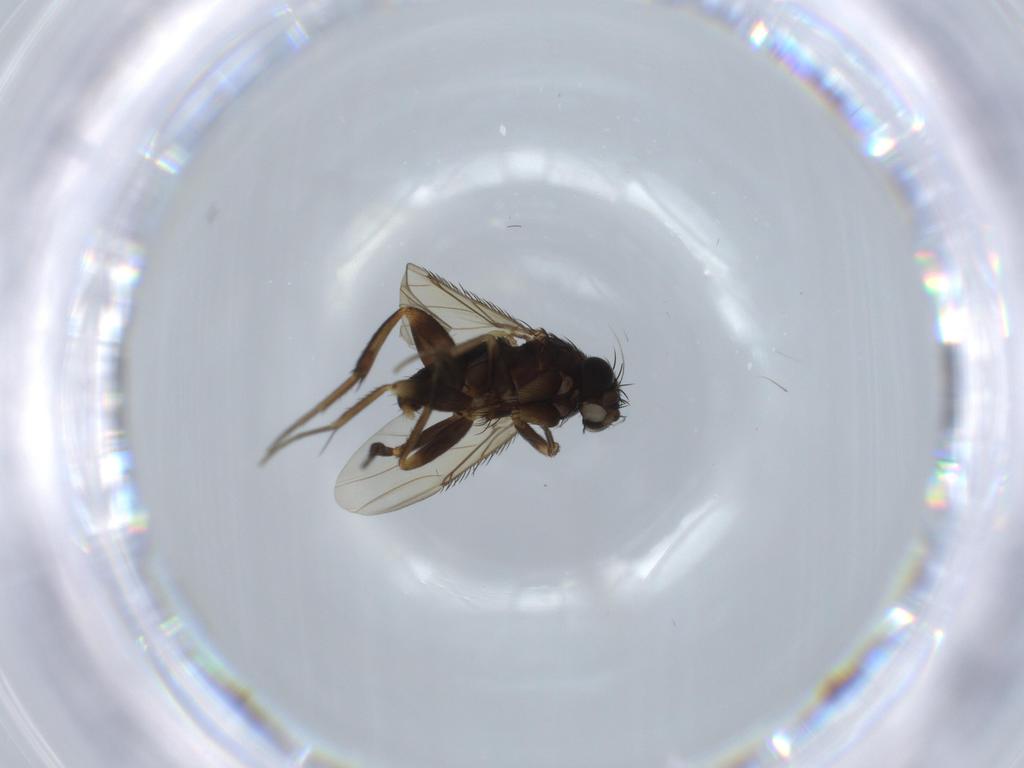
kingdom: Animalia
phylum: Arthropoda
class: Insecta
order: Diptera
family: Phoridae
